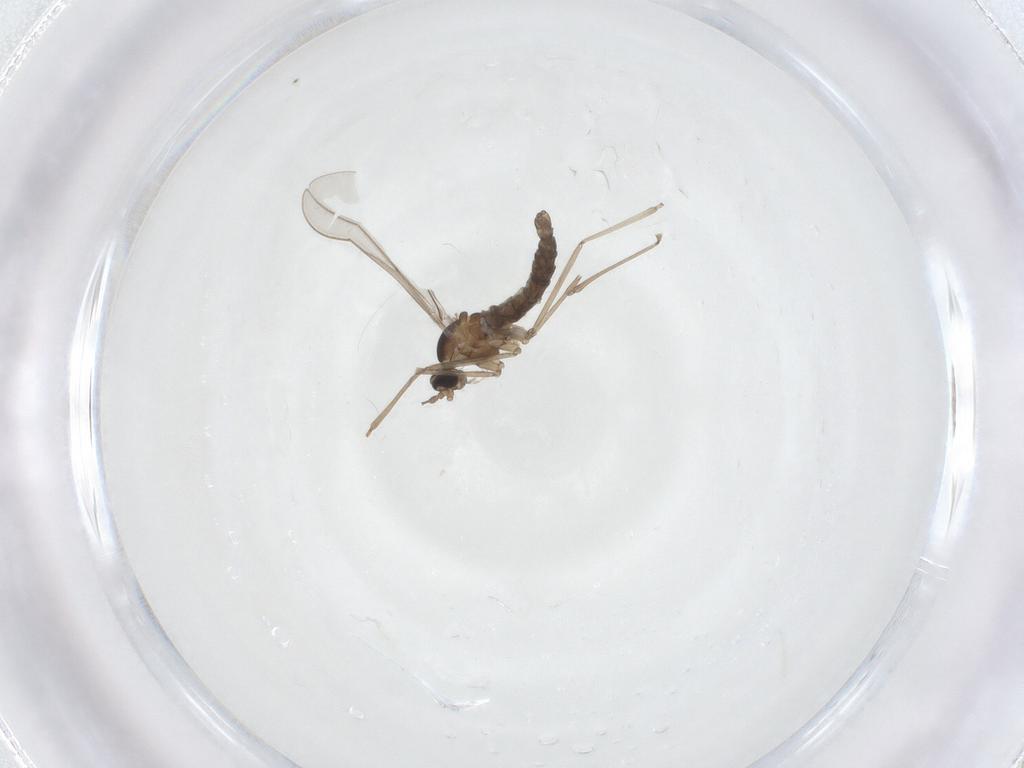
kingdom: Animalia
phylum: Arthropoda
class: Insecta
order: Diptera
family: Cecidomyiidae
